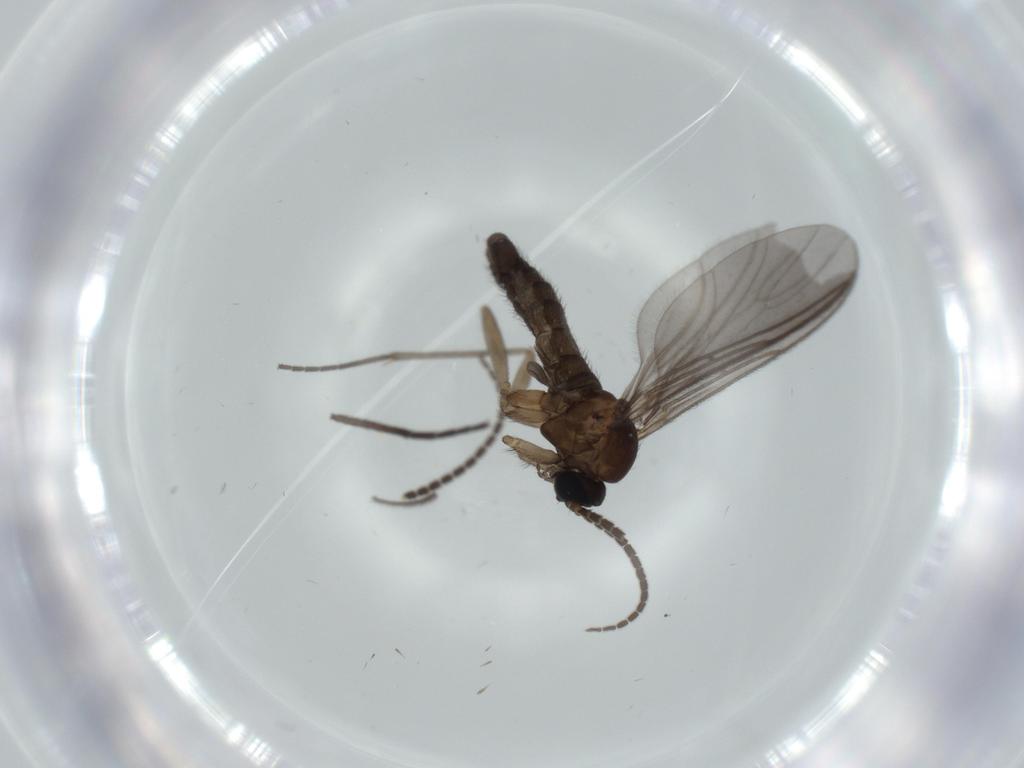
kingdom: Animalia
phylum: Arthropoda
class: Insecta
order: Diptera
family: Sciaridae
